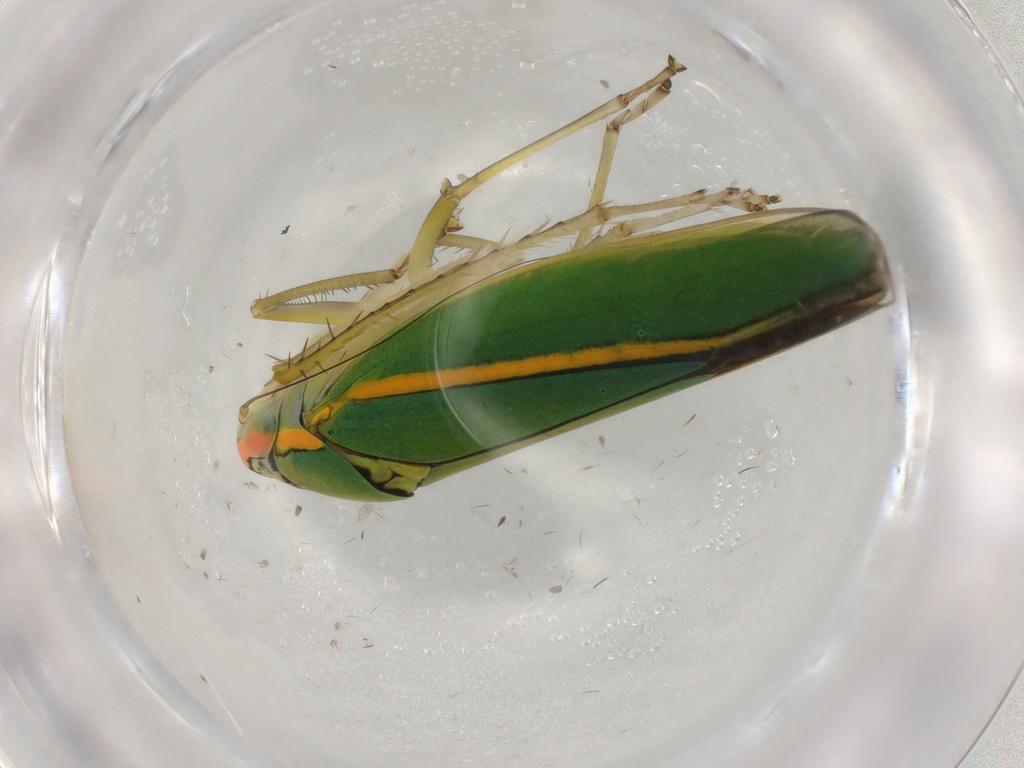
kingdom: Animalia
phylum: Arthropoda
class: Insecta
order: Hemiptera
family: Cicadellidae
